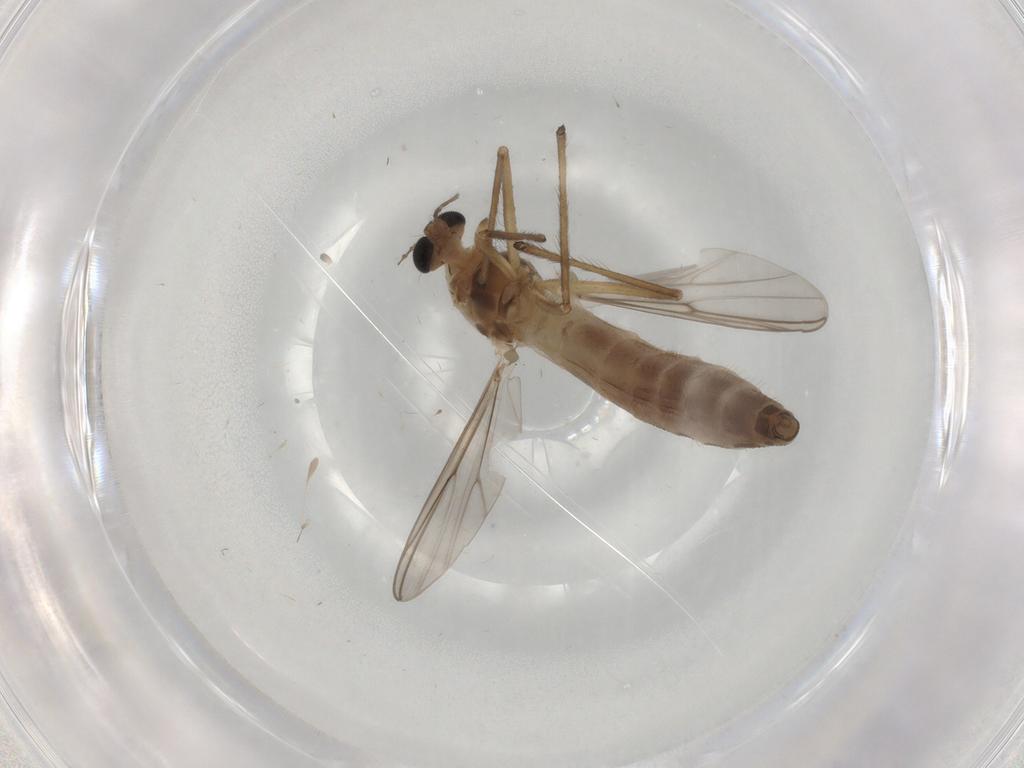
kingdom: Animalia
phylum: Arthropoda
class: Insecta
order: Diptera
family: Chironomidae
